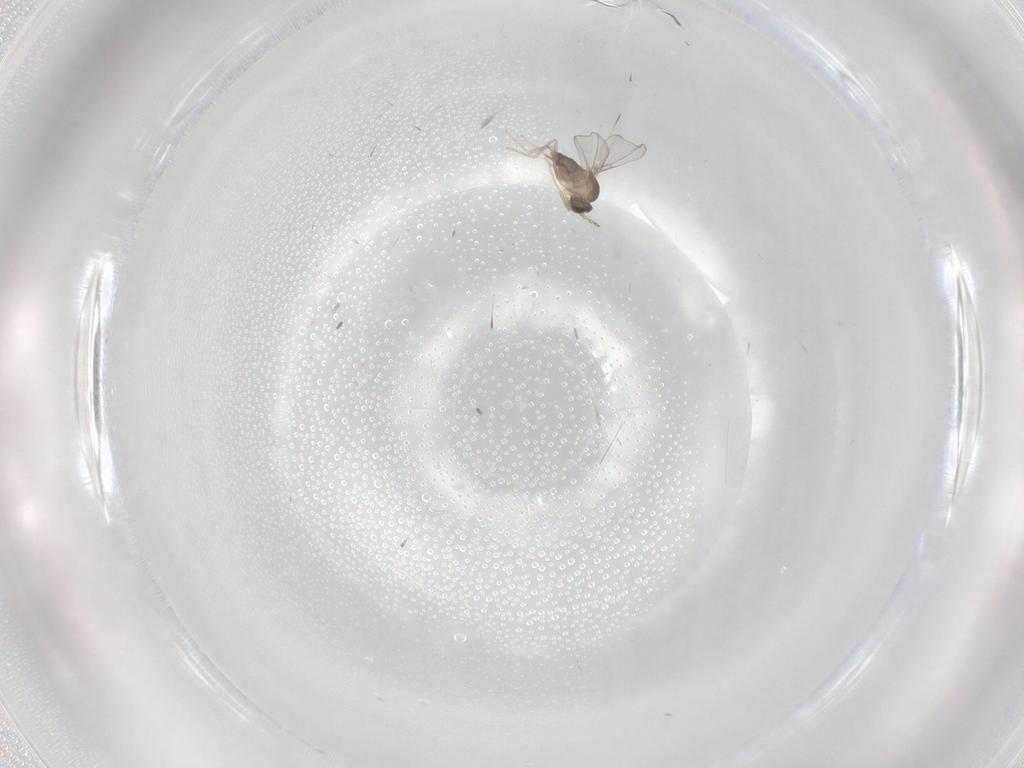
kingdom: Animalia
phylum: Arthropoda
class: Insecta
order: Diptera
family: Cecidomyiidae
